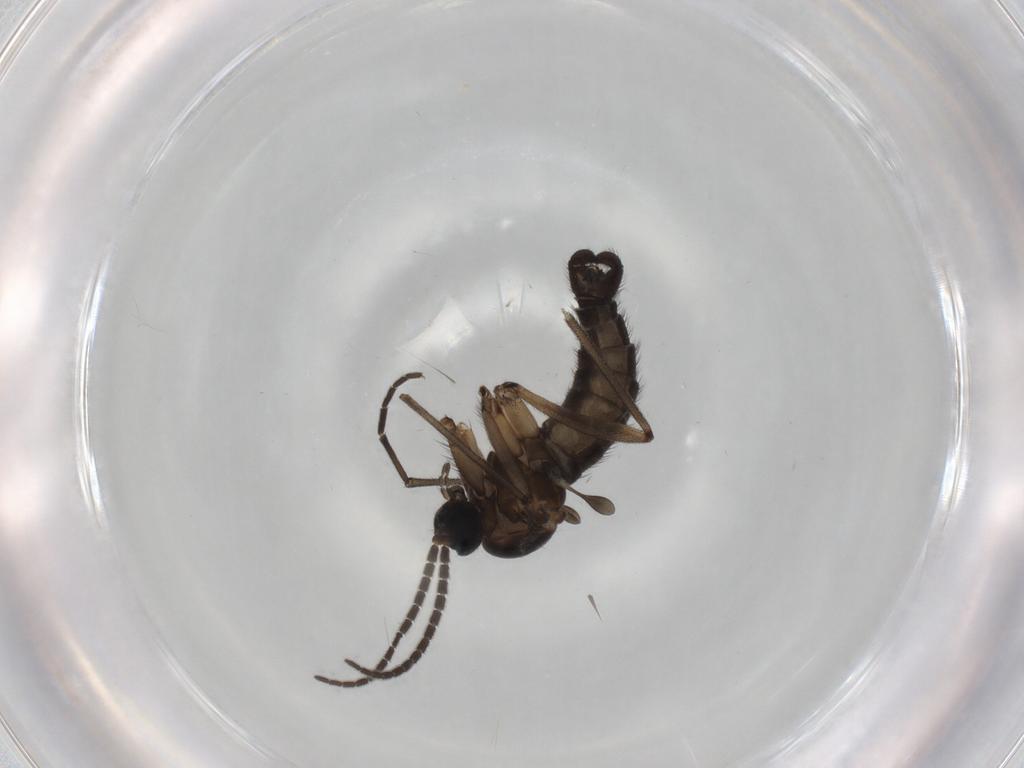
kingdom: Animalia
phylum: Arthropoda
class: Insecta
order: Diptera
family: Sciaridae
